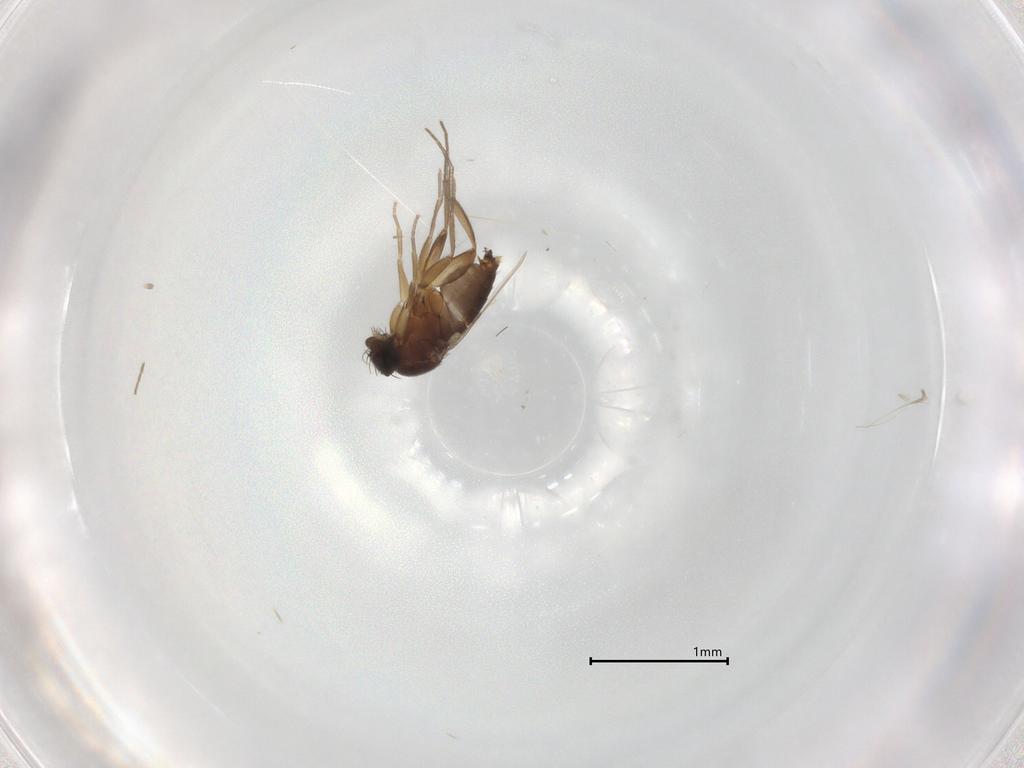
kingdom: Animalia
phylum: Arthropoda
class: Insecta
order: Diptera
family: Phoridae
